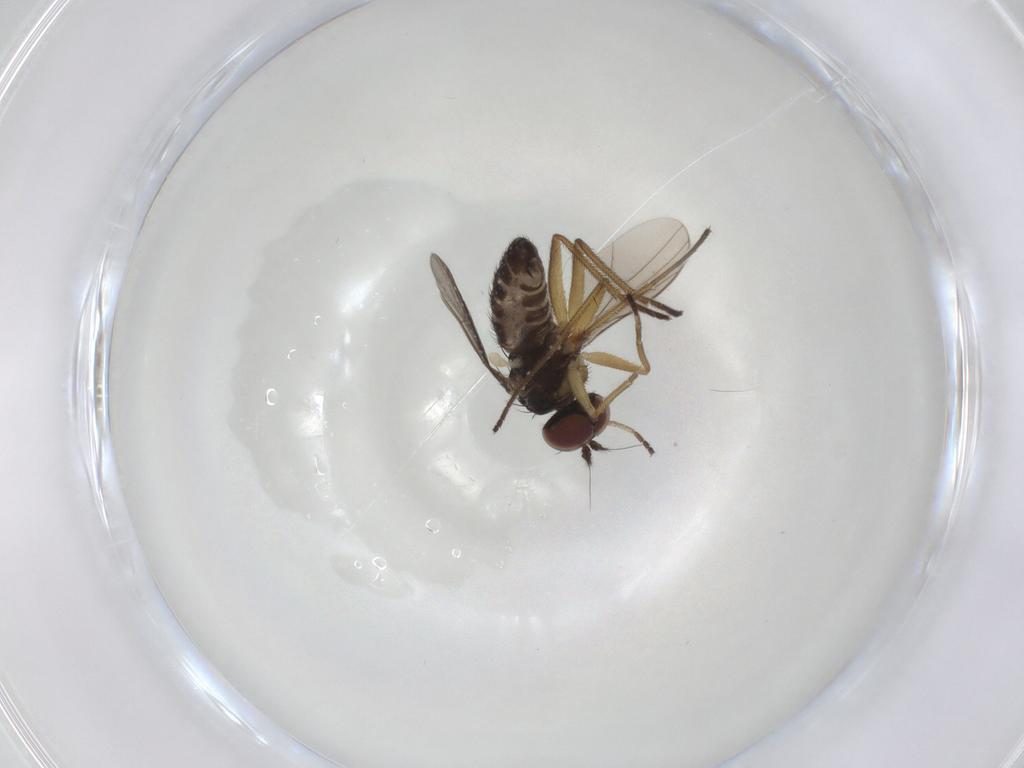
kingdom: Animalia
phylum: Arthropoda
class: Insecta
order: Diptera
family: Dolichopodidae
